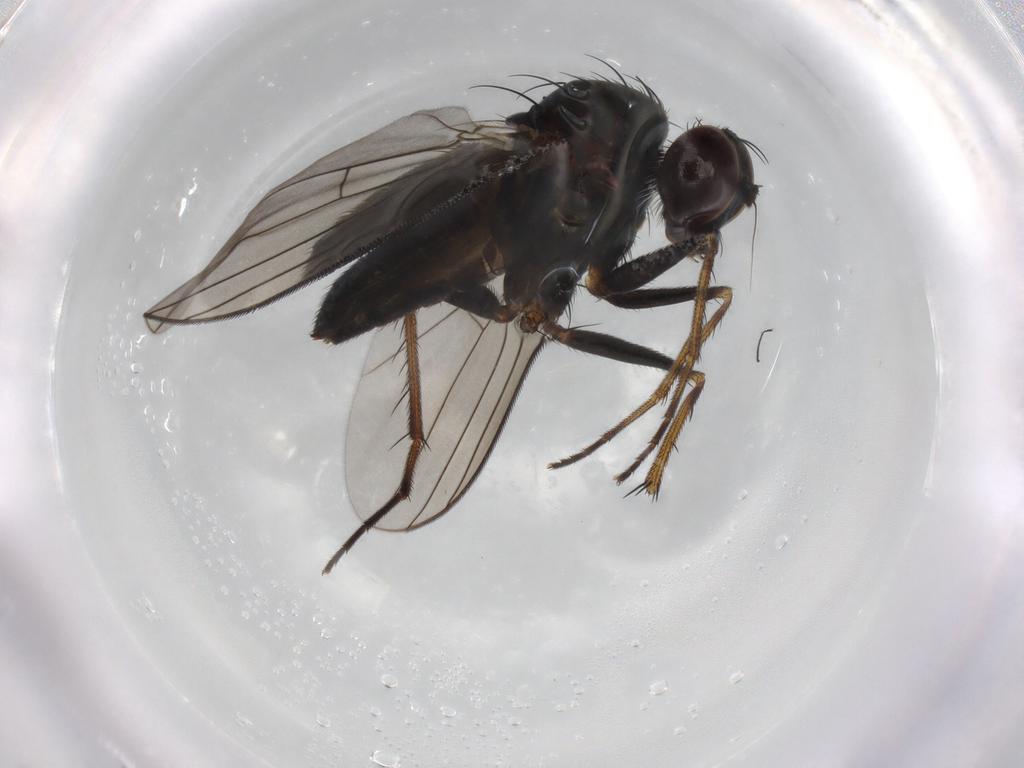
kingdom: Animalia
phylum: Arthropoda
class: Insecta
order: Diptera
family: Dolichopodidae
